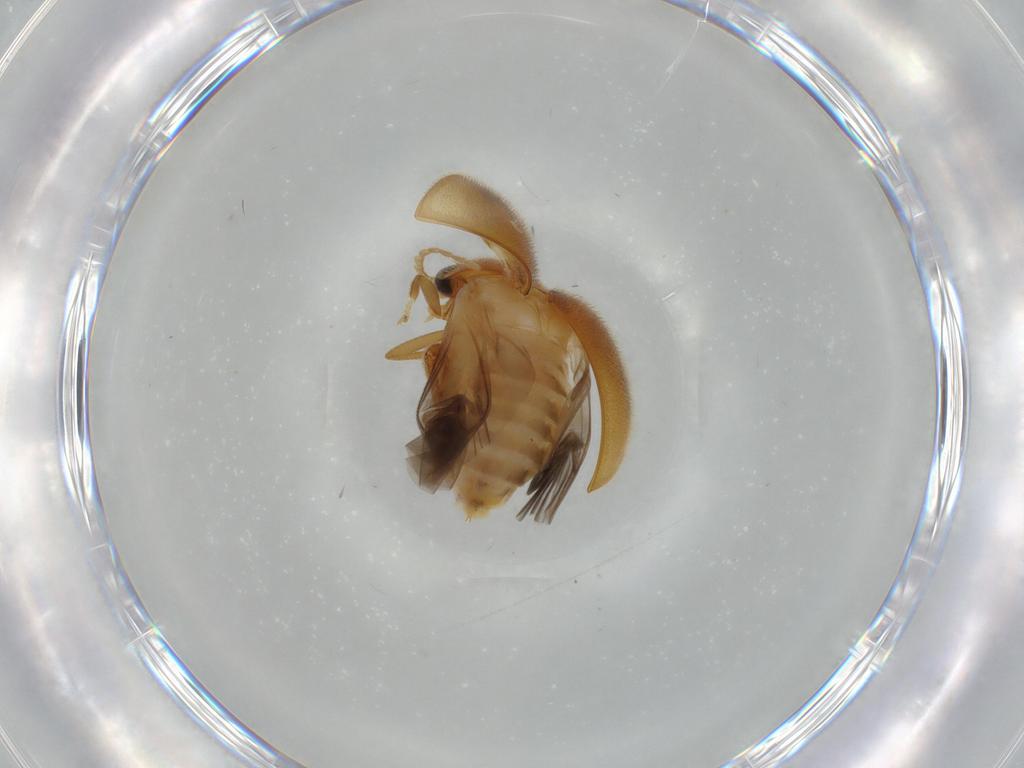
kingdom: Animalia
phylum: Arthropoda
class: Insecta
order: Coleoptera
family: Scirtidae
